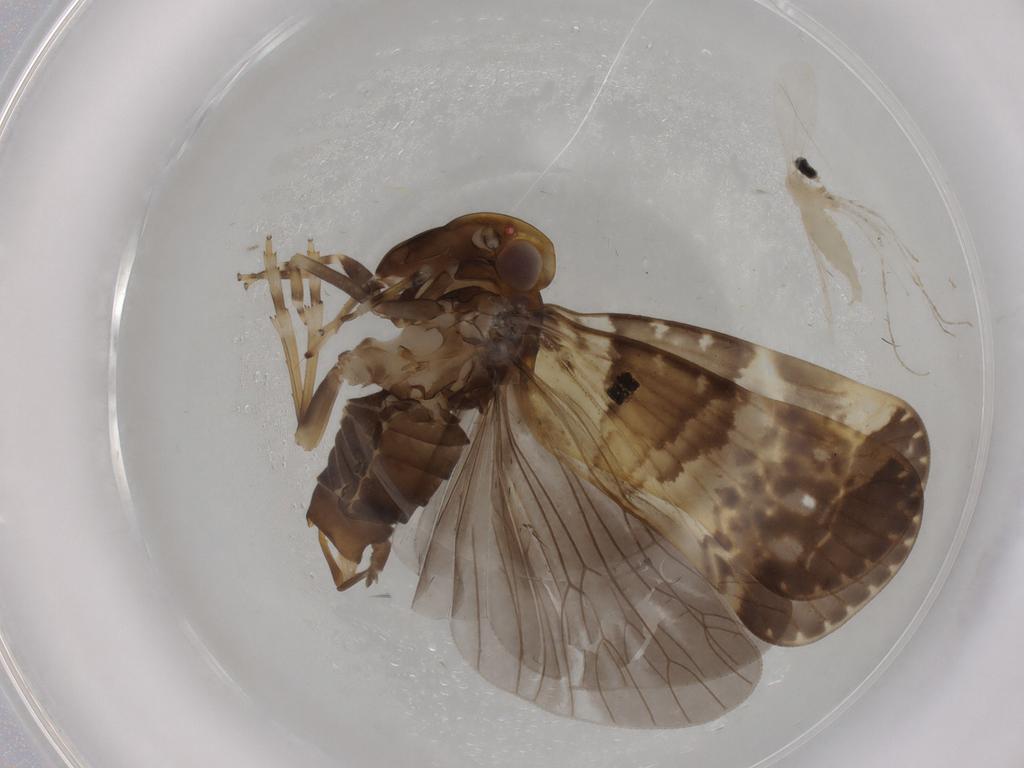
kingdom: Animalia
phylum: Arthropoda
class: Insecta
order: Diptera
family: Cecidomyiidae
